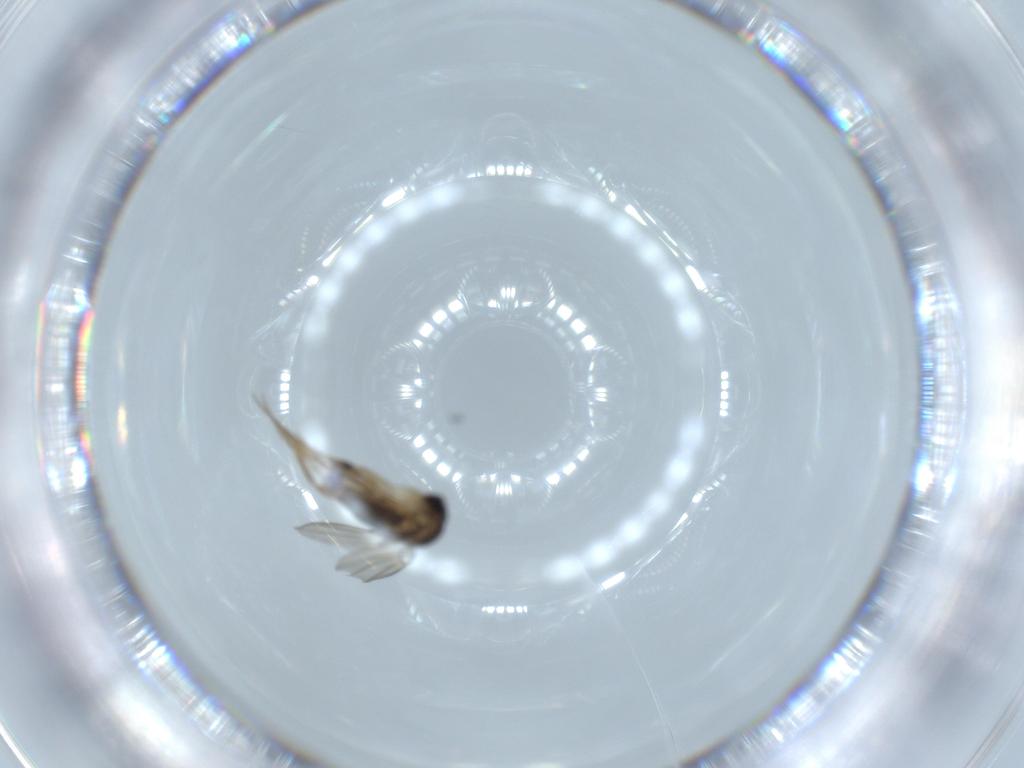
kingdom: Animalia
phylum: Arthropoda
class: Insecta
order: Diptera
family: Phoridae
